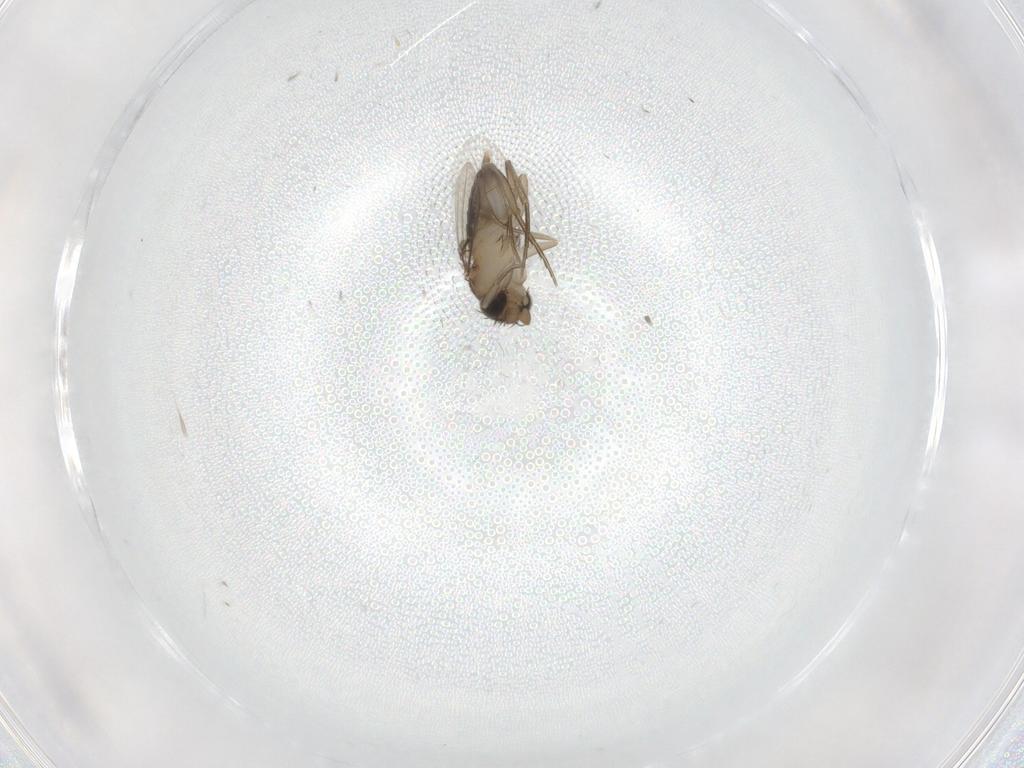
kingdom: Animalia
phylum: Arthropoda
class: Insecta
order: Diptera
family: Phoridae
